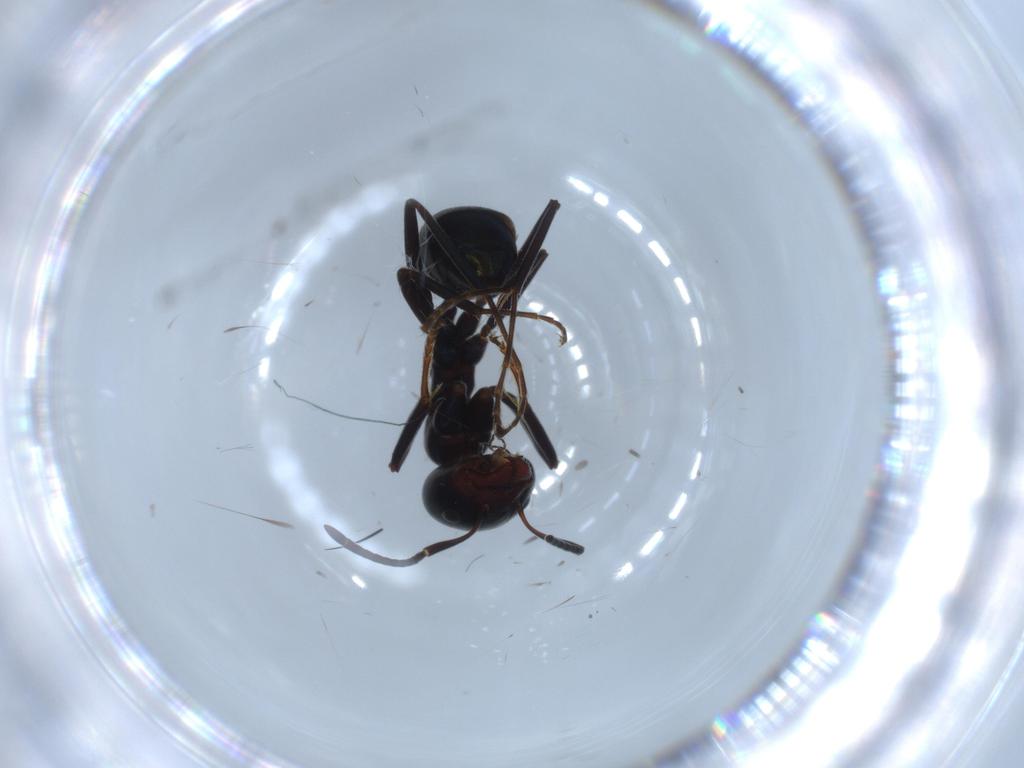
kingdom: Animalia
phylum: Arthropoda
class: Insecta
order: Hymenoptera
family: Formicidae
